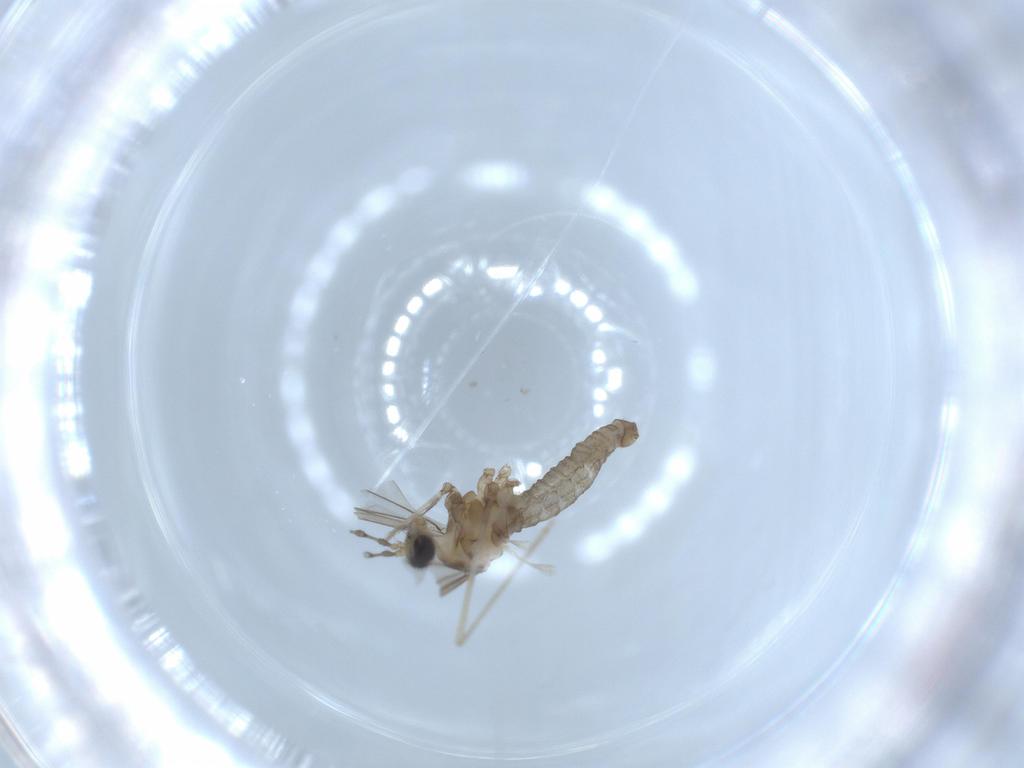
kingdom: Animalia
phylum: Arthropoda
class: Insecta
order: Diptera
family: Cecidomyiidae
